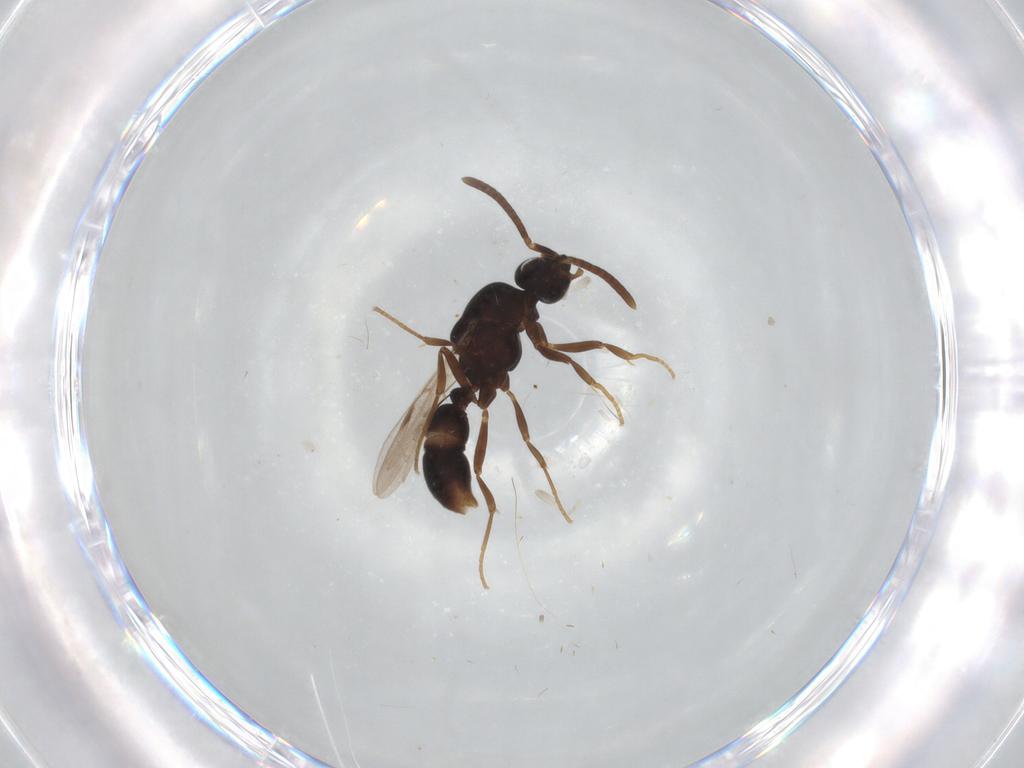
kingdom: Animalia
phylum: Arthropoda
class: Insecta
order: Hymenoptera
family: Formicidae
